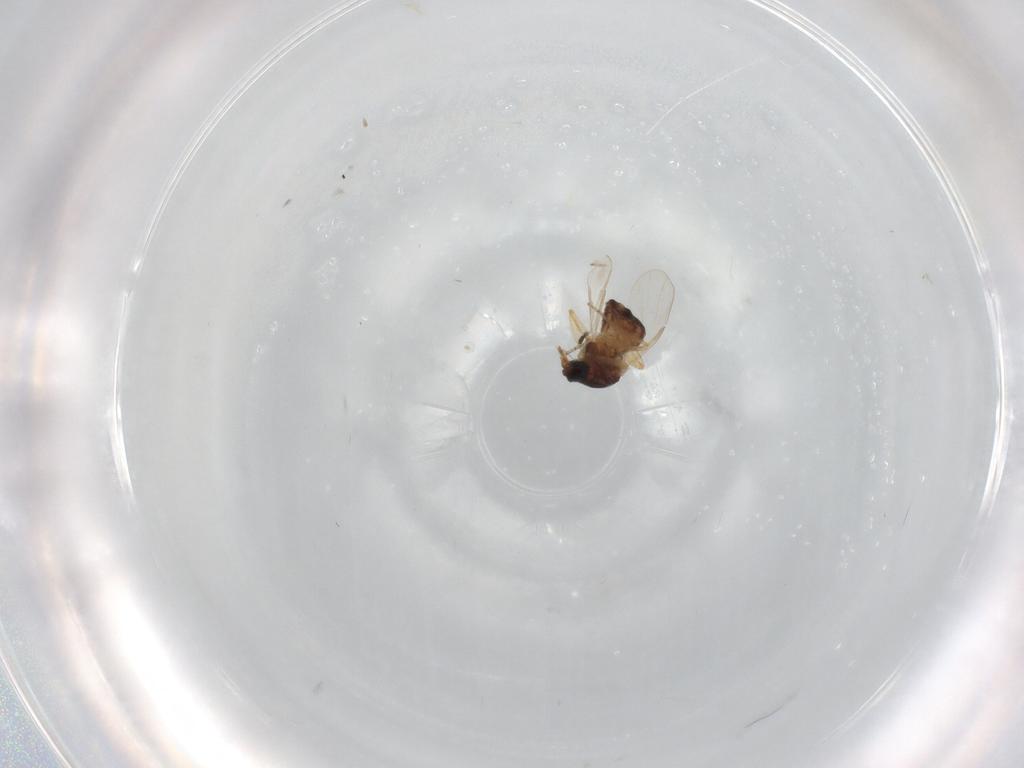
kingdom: Animalia
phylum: Arthropoda
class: Insecta
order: Diptera
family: Ceratopogonidae
